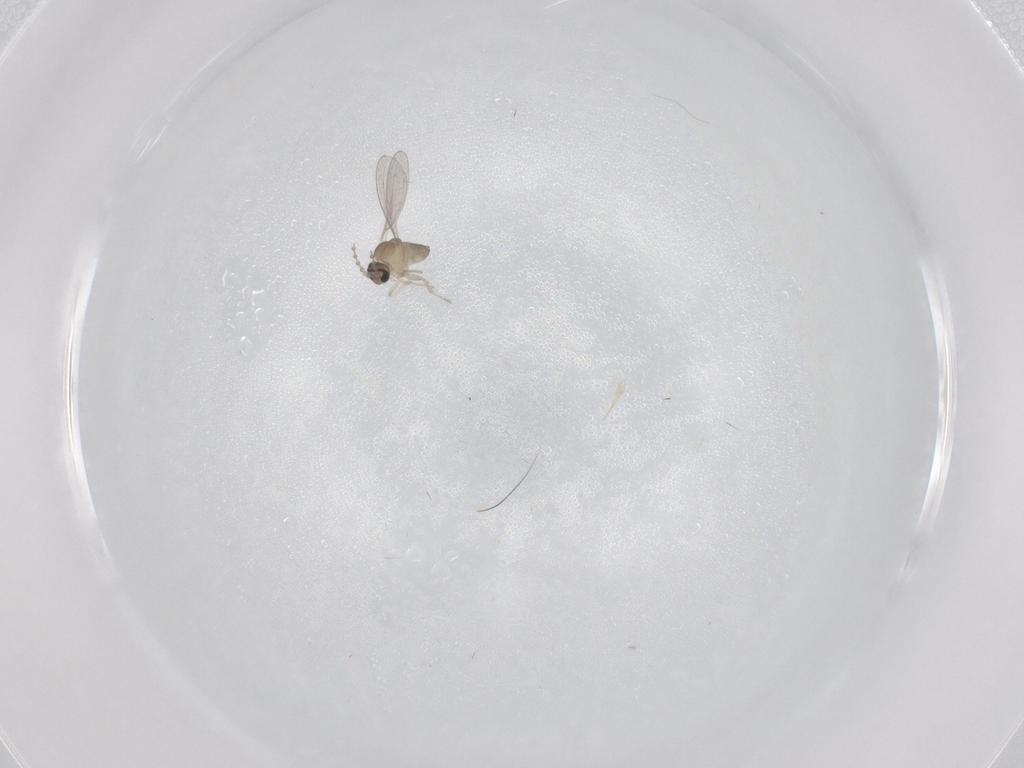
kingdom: Animalia
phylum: Arthropoda
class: Insecta
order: Diptera
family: Cecidomyiidae
